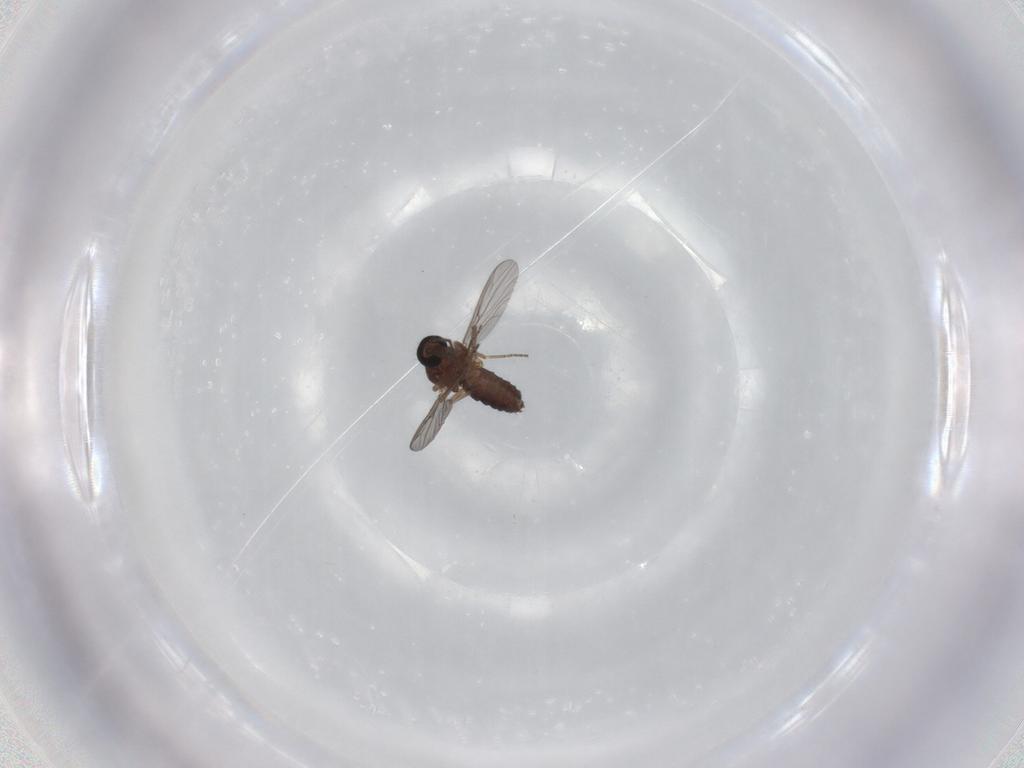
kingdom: Animalia
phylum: Arthropoda
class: Insecta
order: Diptera
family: Ceratopogonidae
